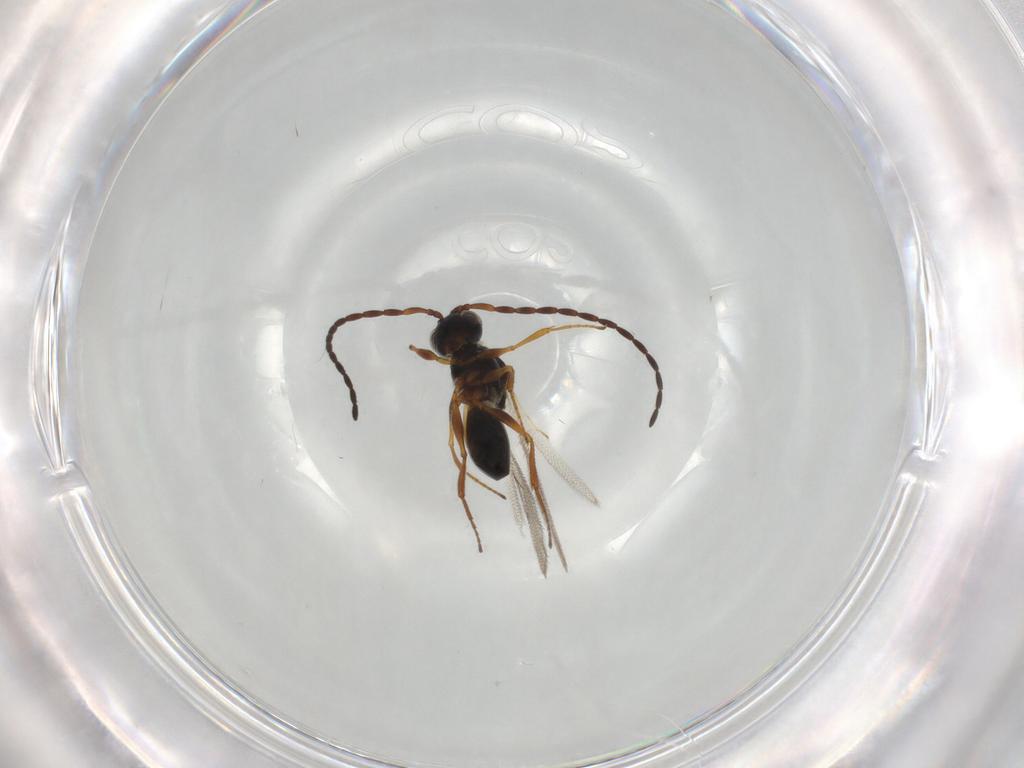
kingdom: Animalia
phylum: Arthropoda
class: Insecta
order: Hymenoptera
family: Figitidae
